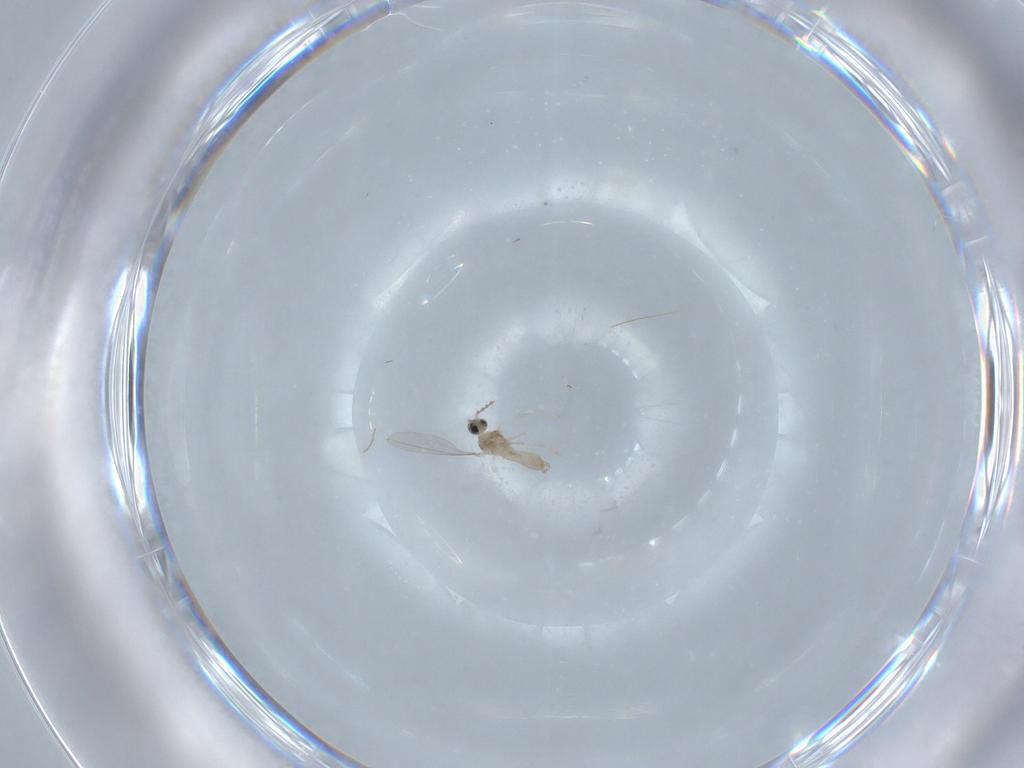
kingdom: Animalia
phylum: Arthropoda
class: Insecta
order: Diptera
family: Cecidomyiidae
